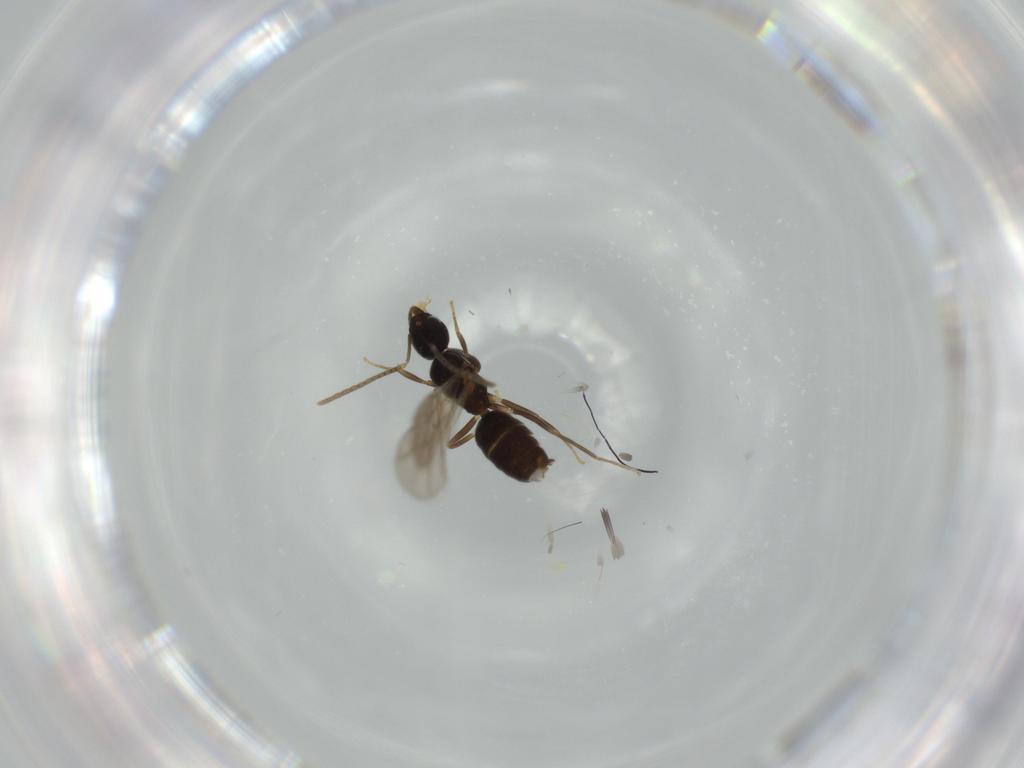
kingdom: Animalia
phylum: Arthropoda
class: Insecta
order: Hymenoptera
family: Formicidae
